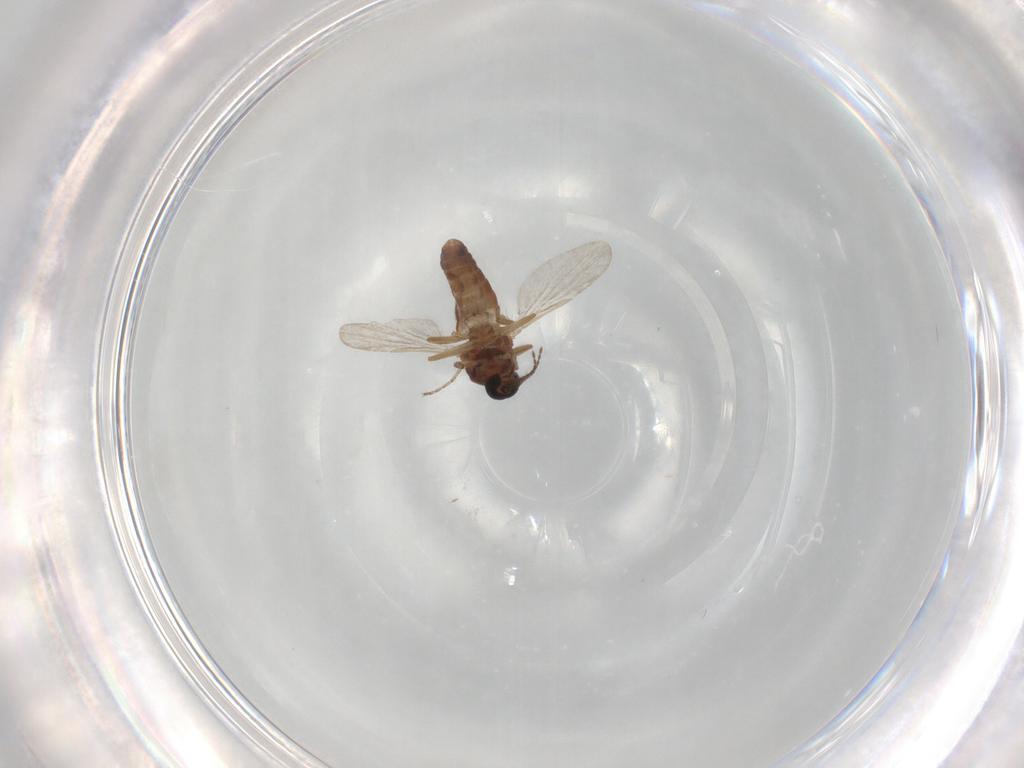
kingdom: Animalia
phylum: Arthropoda
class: Insecta
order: Diptera
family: Ceratopogonidae
